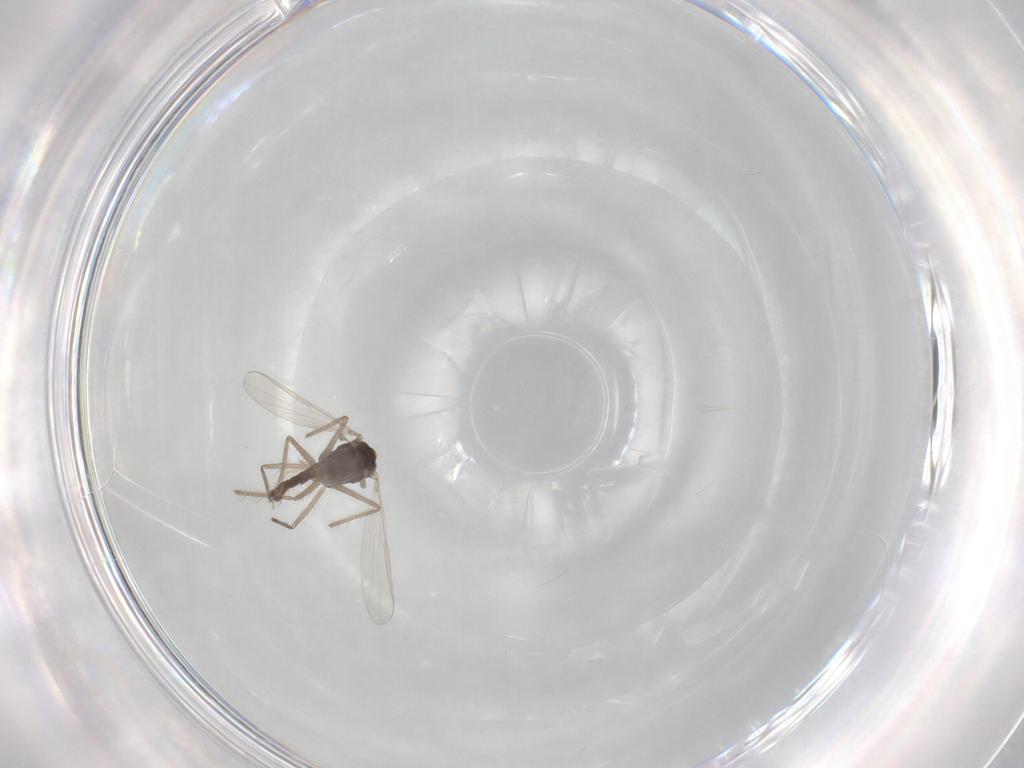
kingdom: Animalia
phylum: Arthropoda
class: Insecta
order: Diptera
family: Chironomidae
